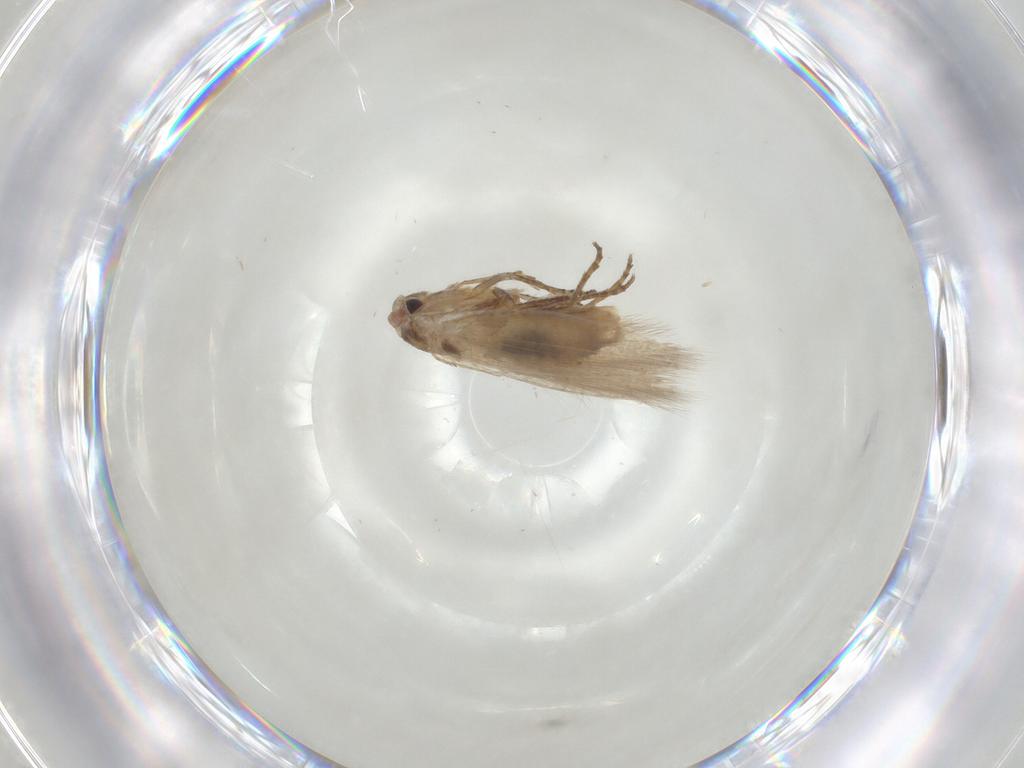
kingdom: Animalia
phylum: Arthropoda
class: Insecta
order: Lepidoptera
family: Bucculatricidae
